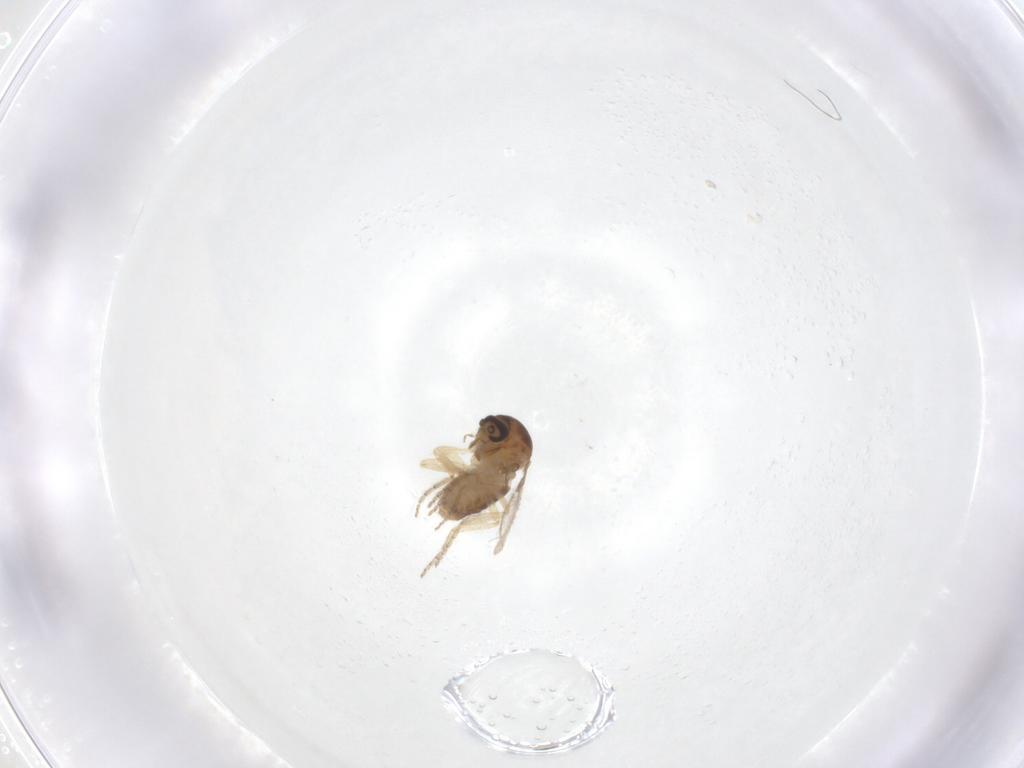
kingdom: Animalia
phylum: Arthropoda
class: Insecta
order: Diptera
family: Ceratopogonidae
